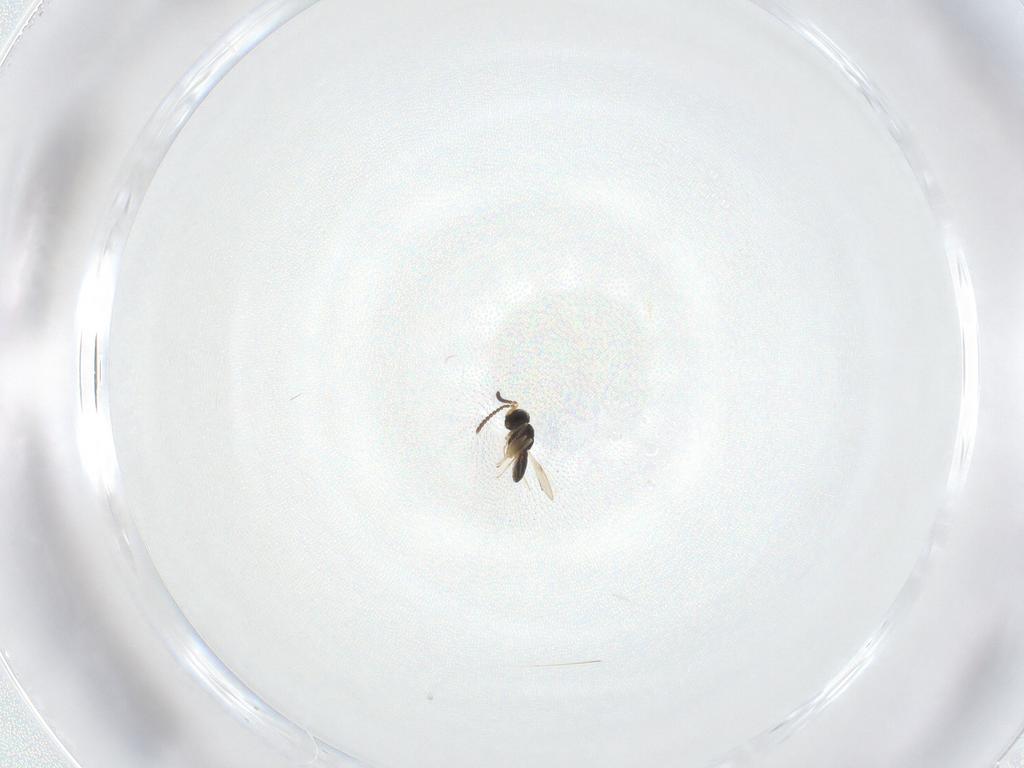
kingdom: Animalia
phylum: Arthropoda
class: Insecta
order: Hymenoptera
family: Scelionidae
